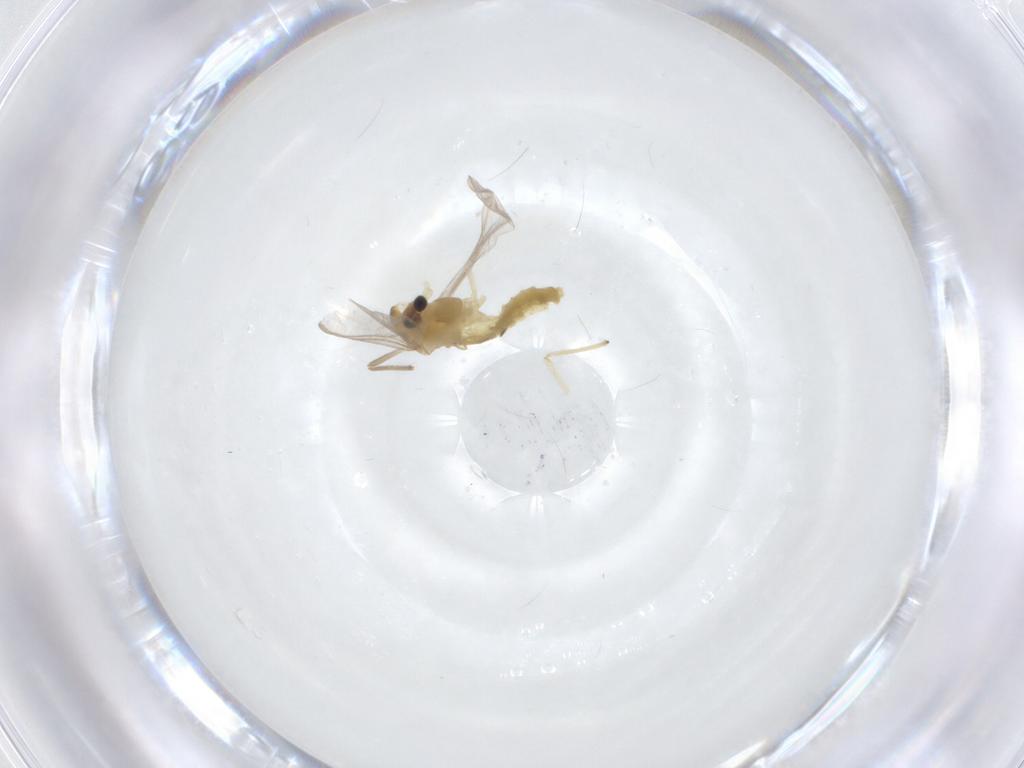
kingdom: Animalia
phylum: Arthropoda
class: Insecta
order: Diptera
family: Chironomidae
